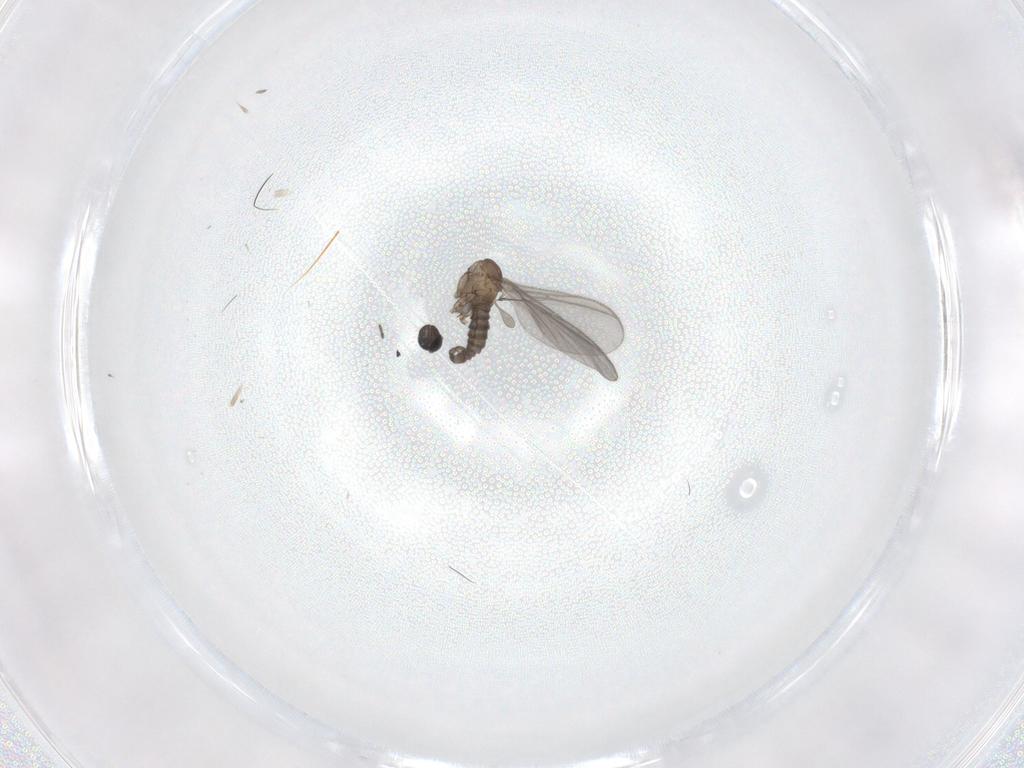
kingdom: Animalia
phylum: Arthropoda
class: Insecta
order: Diptera
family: Sciaridae
